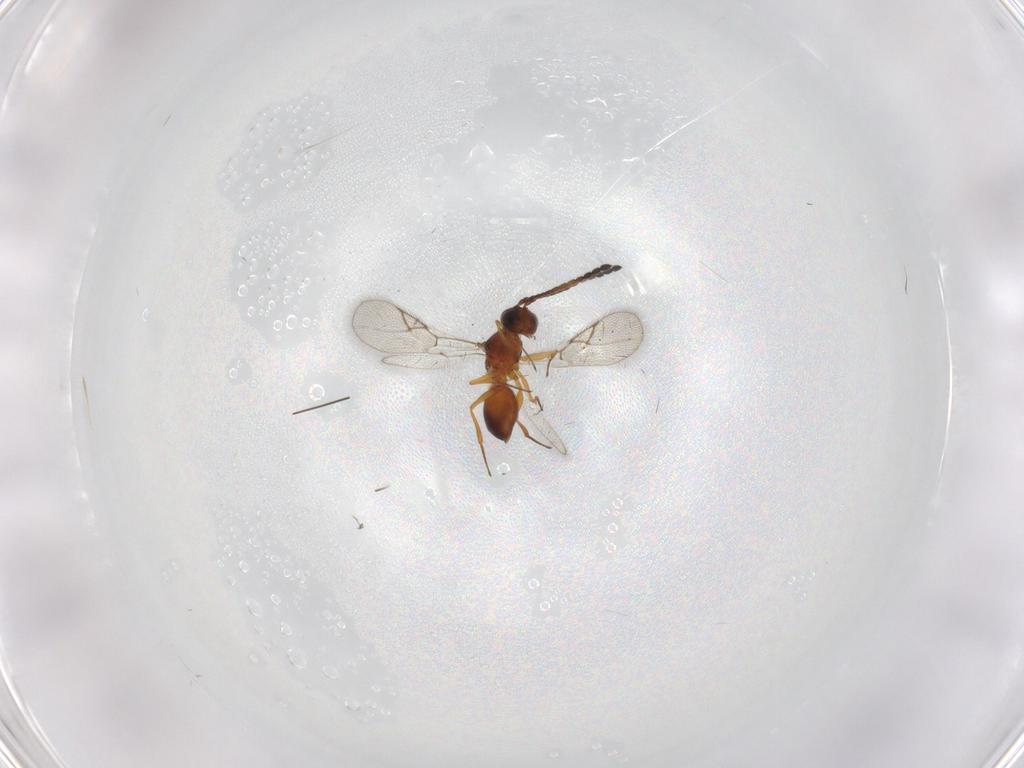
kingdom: Animalia
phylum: Arthropoda
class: Insecta
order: Hymenoptera
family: Figitidae
